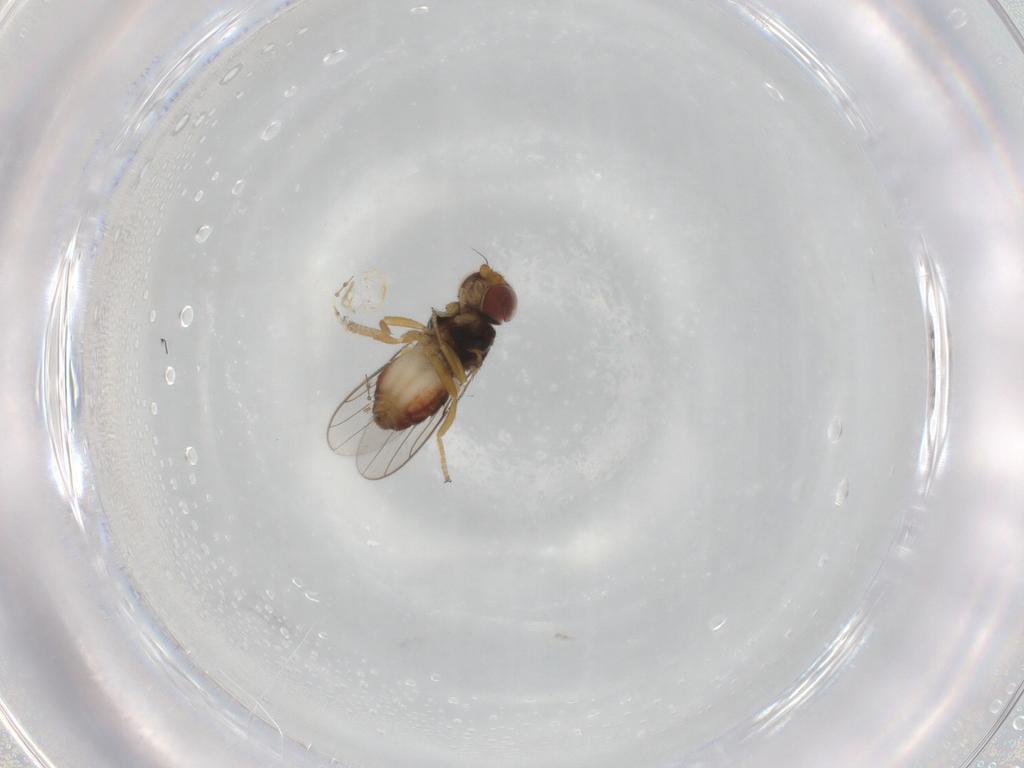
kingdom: Animalia
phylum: Arthropoda
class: Insecta
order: Diptera
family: Chloropidae
